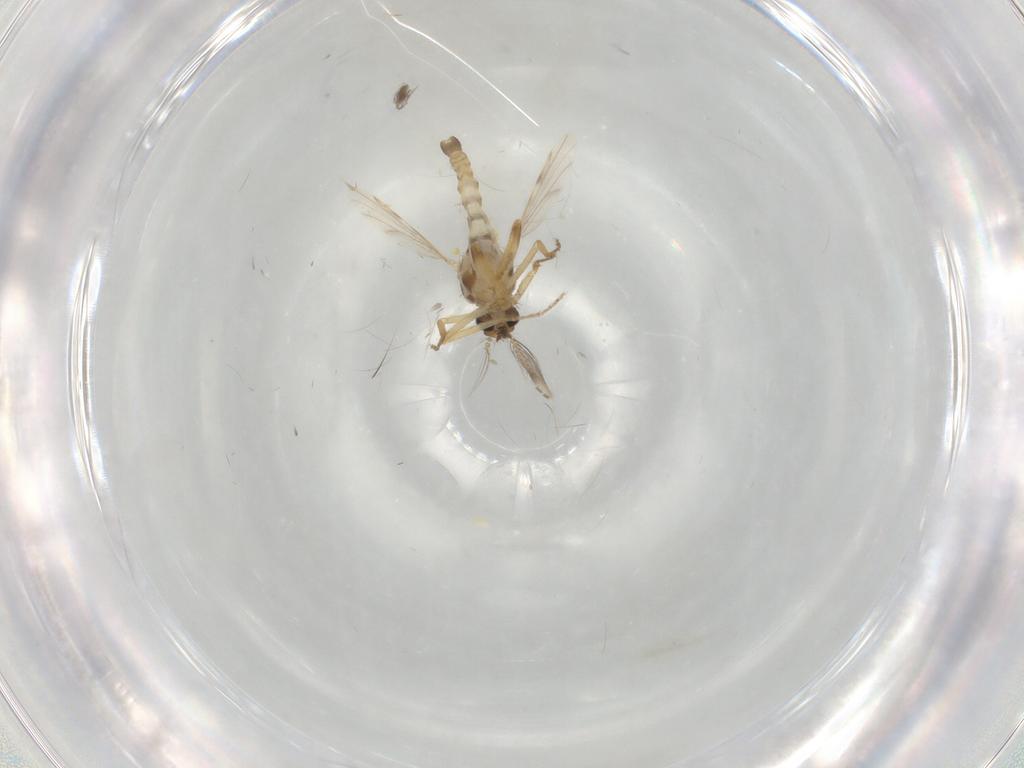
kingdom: Animalia
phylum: Arthropoda
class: Insecta
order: Diptera
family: Ceratopogonidae
